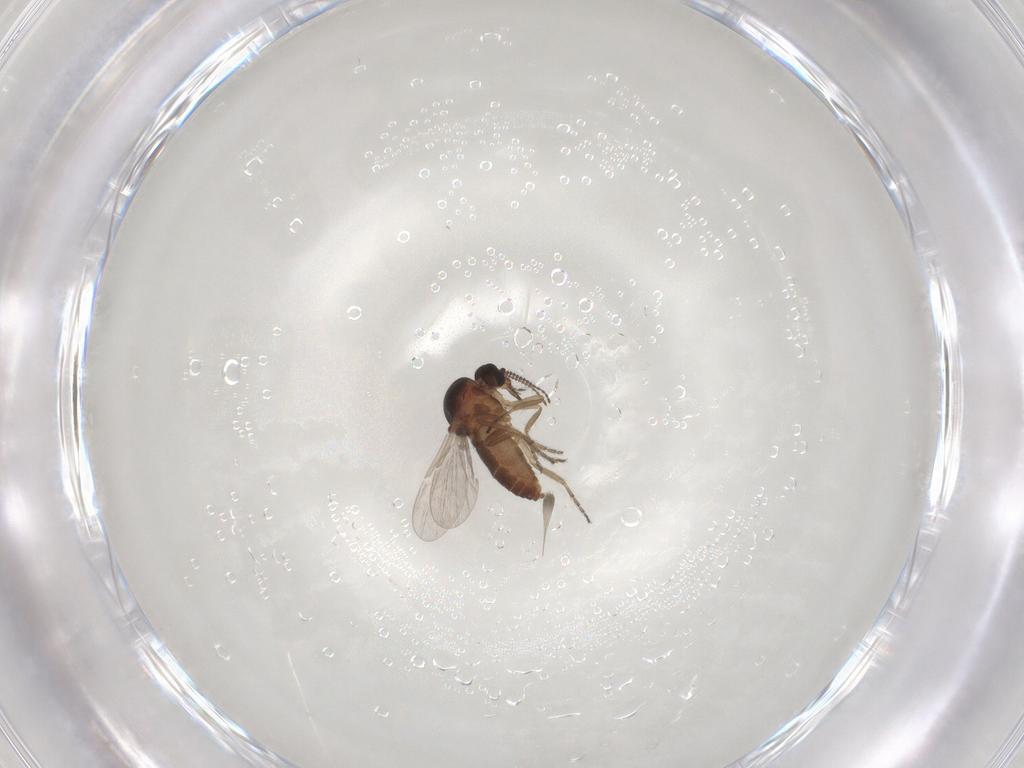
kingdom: Animalia
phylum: Arthropoda
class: Insecta
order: Diptera
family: Ceratopogonidae
